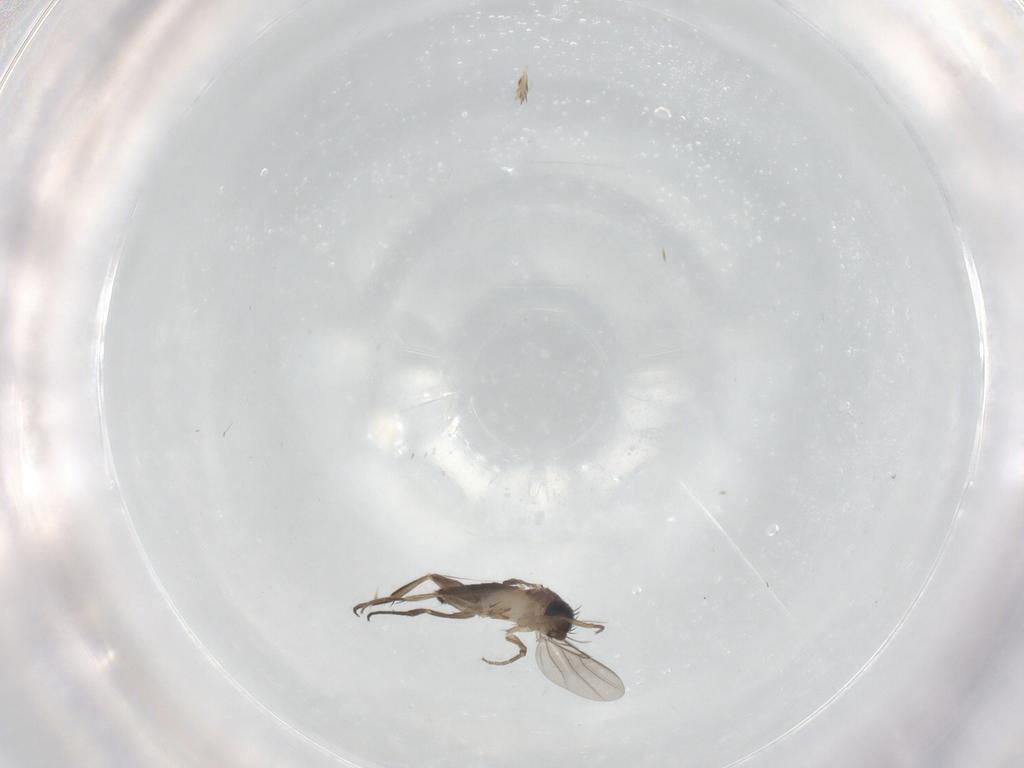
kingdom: Animalia
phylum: Arthropoda
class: Insecta
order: Diptera
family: Phoridae
